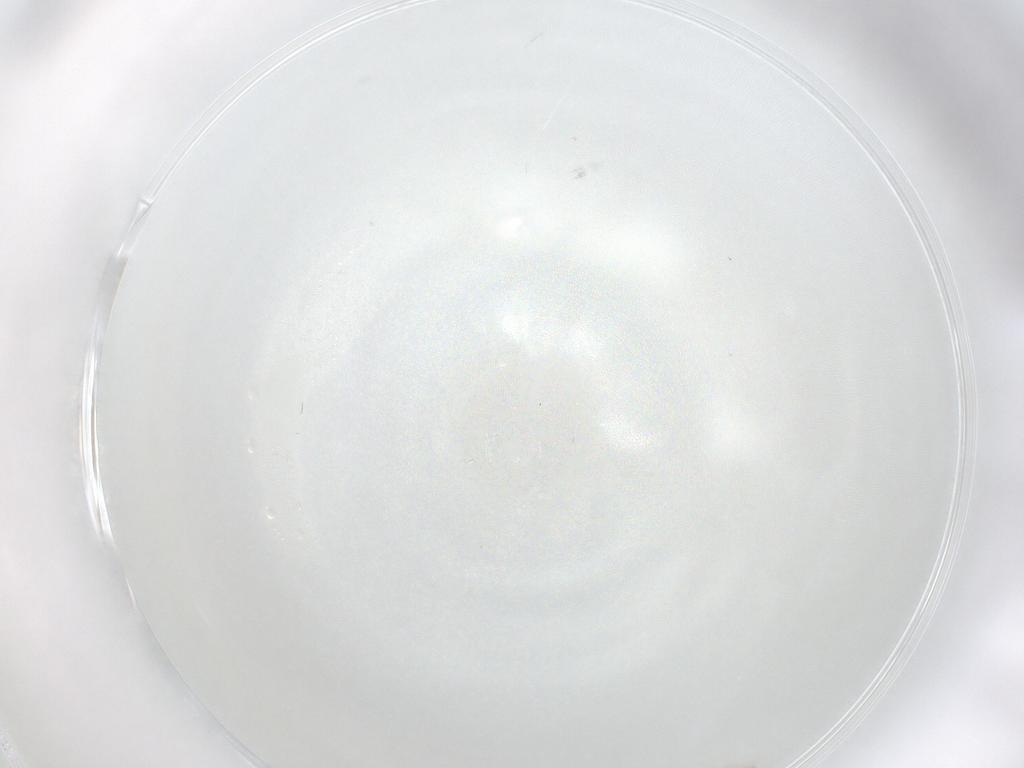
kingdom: Animalia
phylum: Arthropoda
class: Collembola
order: Entomobryomorpha
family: Entomobryidae
